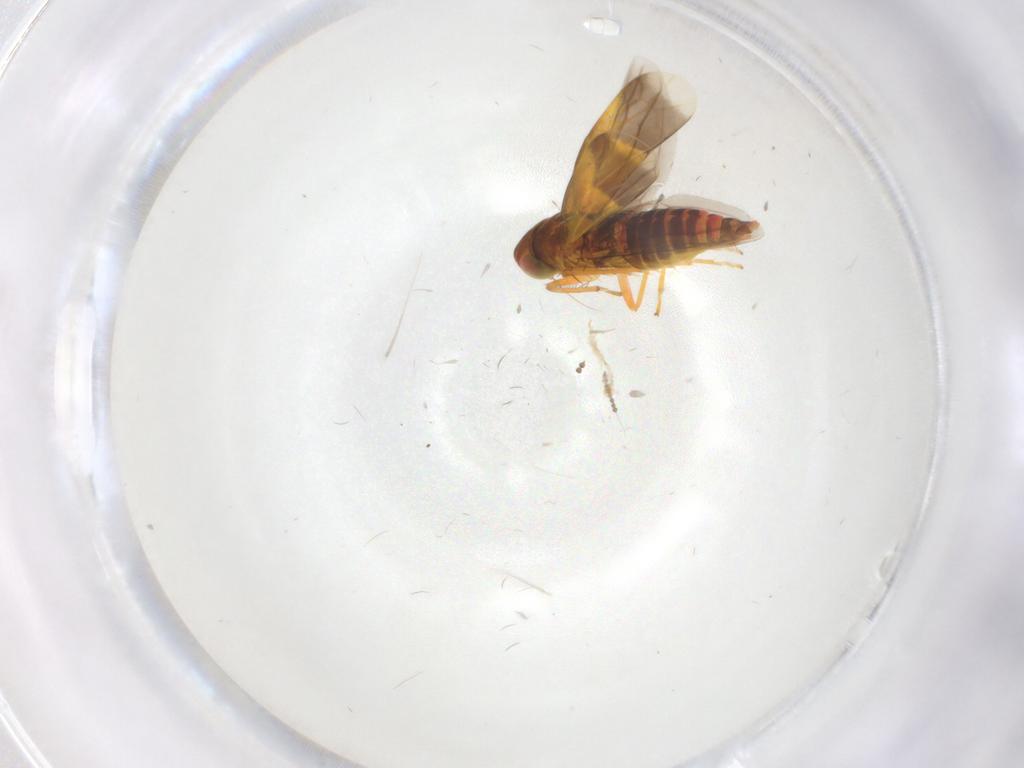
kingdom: Animalia
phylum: Arthropoda
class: Insecta
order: Hemiptera
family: Cicadellidae
